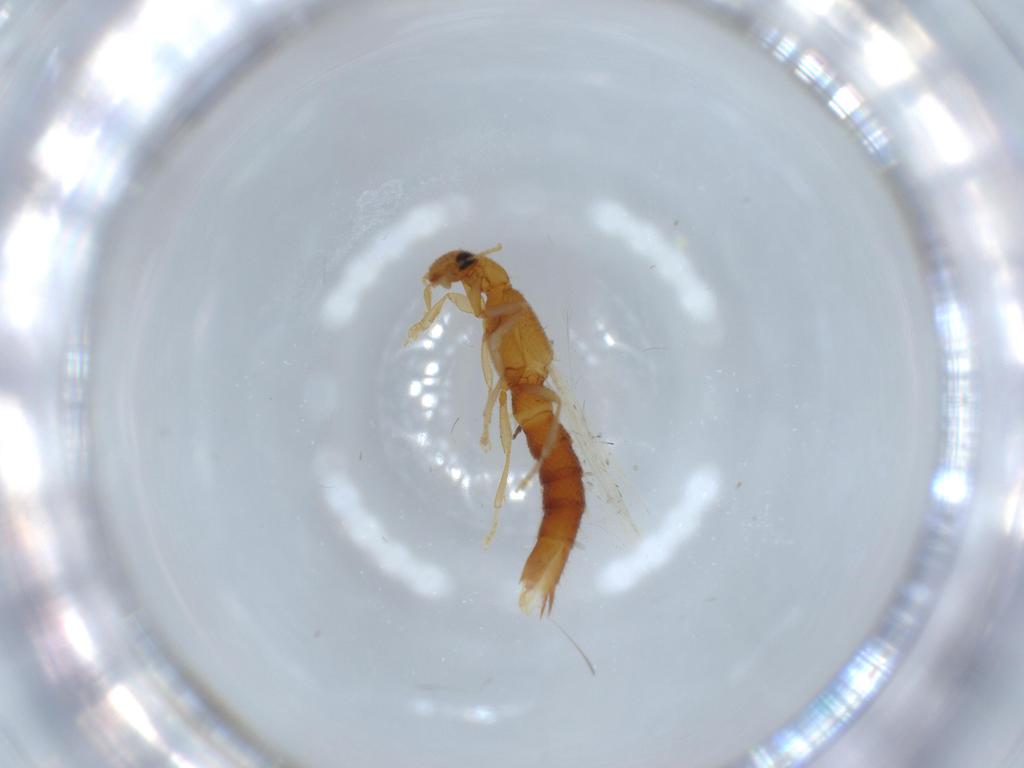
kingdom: Animalia
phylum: Arthropoda
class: Insecta
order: Coleoptera
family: Staphylinidae
